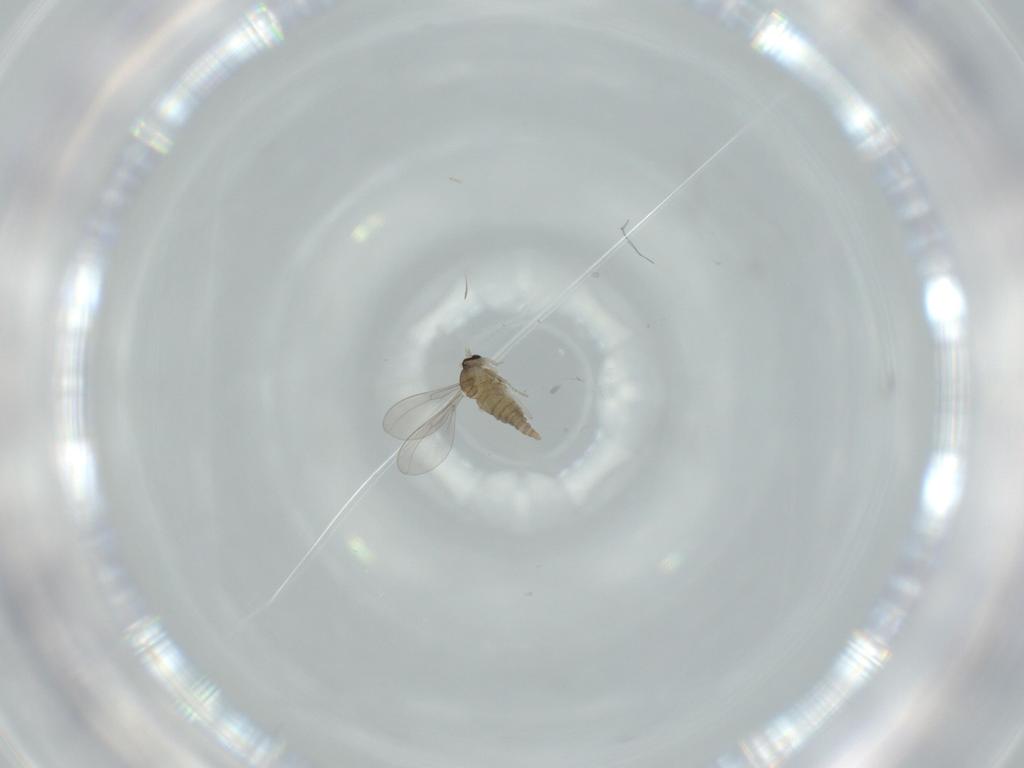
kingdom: Animalia
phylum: Arthropoda
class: Insecta
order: Diptera
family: Cecidomyiidae
